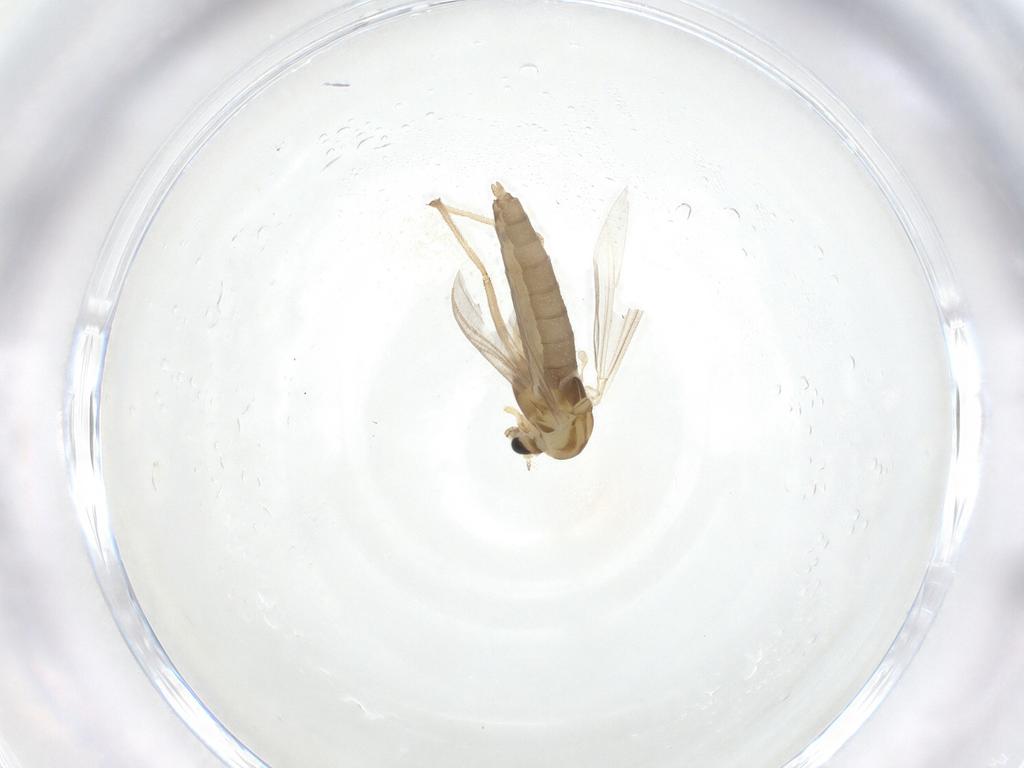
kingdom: Animalia
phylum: Arthropoda
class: Insecta
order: Diptera
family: Chironomidae
